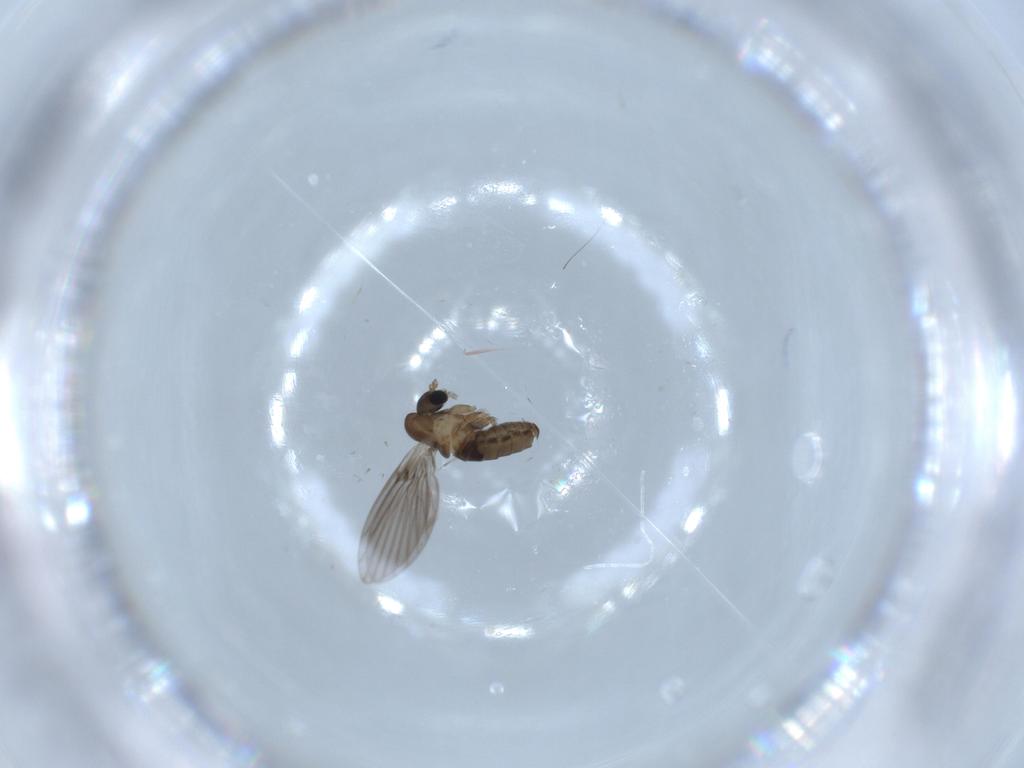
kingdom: Animalia
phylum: Arthropoda
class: Insecta
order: Diptera
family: Psychodidae
